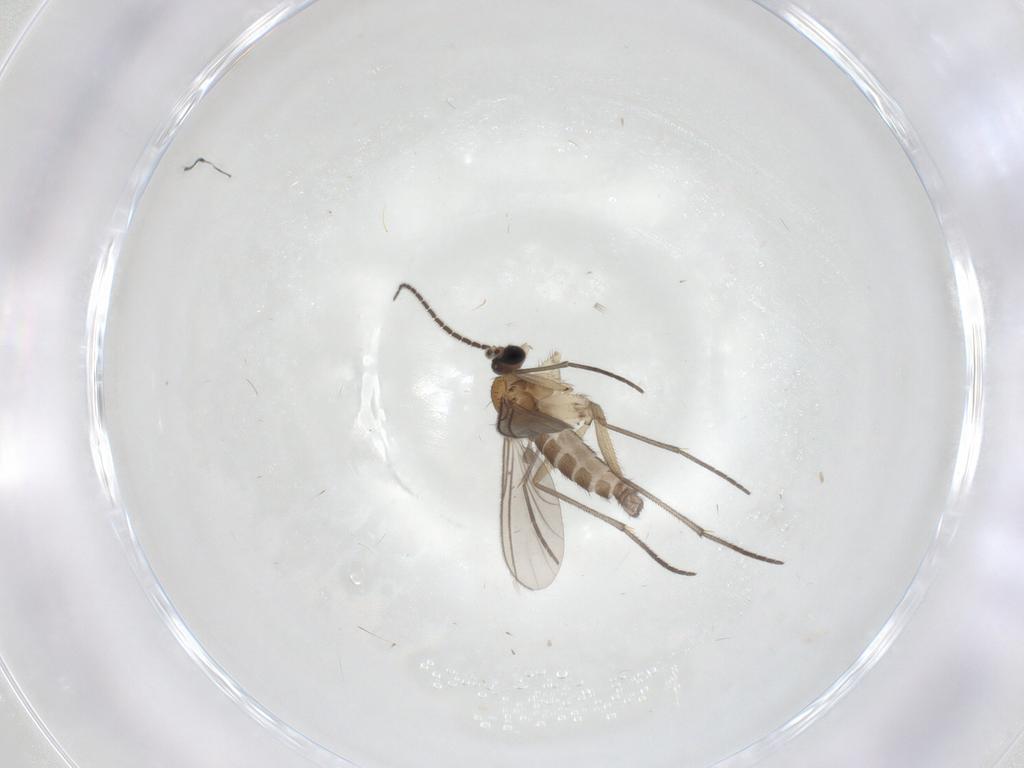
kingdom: Animalia
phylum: Arthropoda
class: Insecta
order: Diptera
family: Sciaridae
